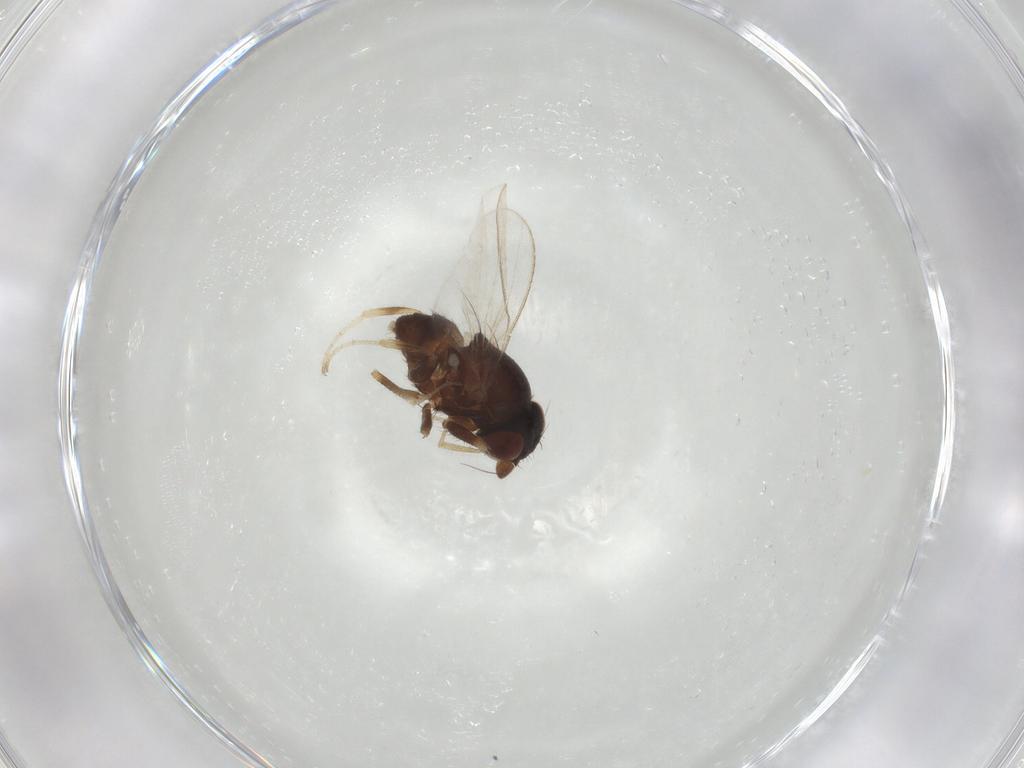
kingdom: Animalia
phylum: Arthropoda
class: Insecta
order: Diptera
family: Milichiidae
